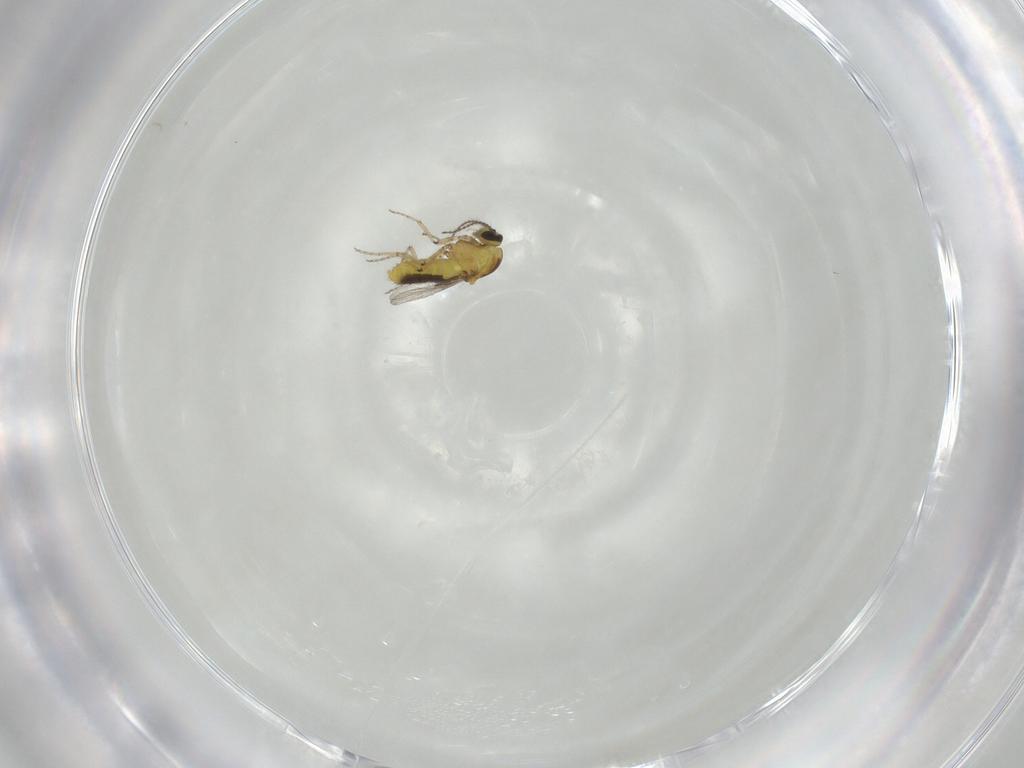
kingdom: Animalia
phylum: Arthropoda
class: Insecta
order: Diptera
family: Ceratopogonidae
